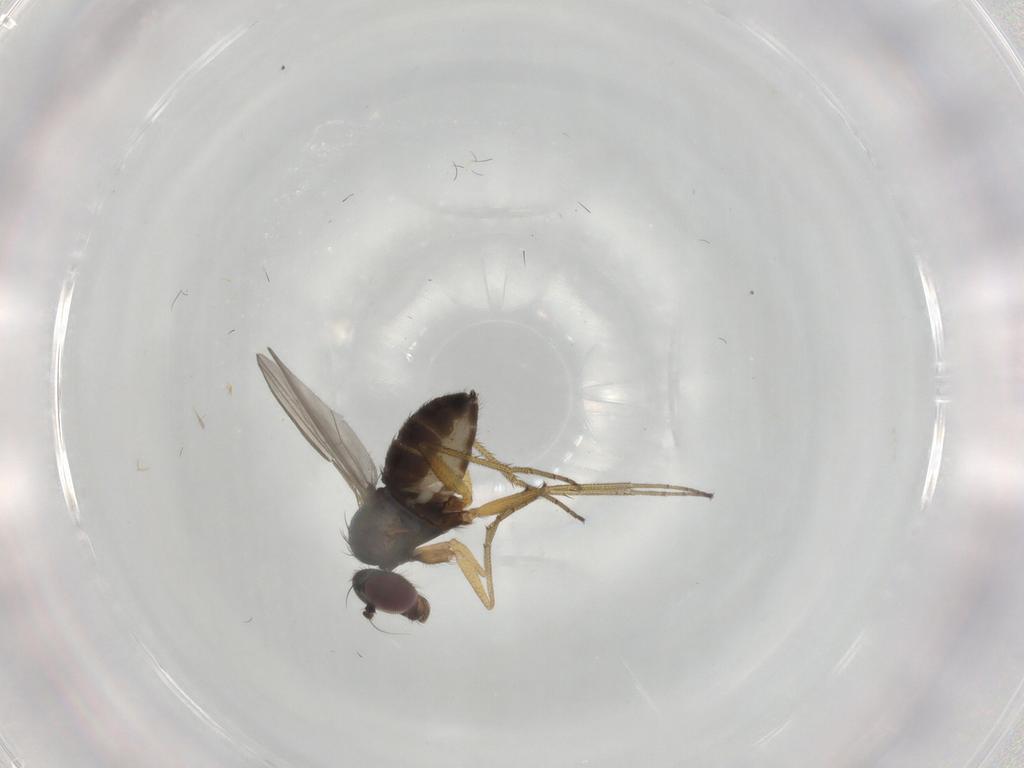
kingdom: Animalia
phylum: Arthropoda
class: Insecta
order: Diptera
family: Dolichopodidae
